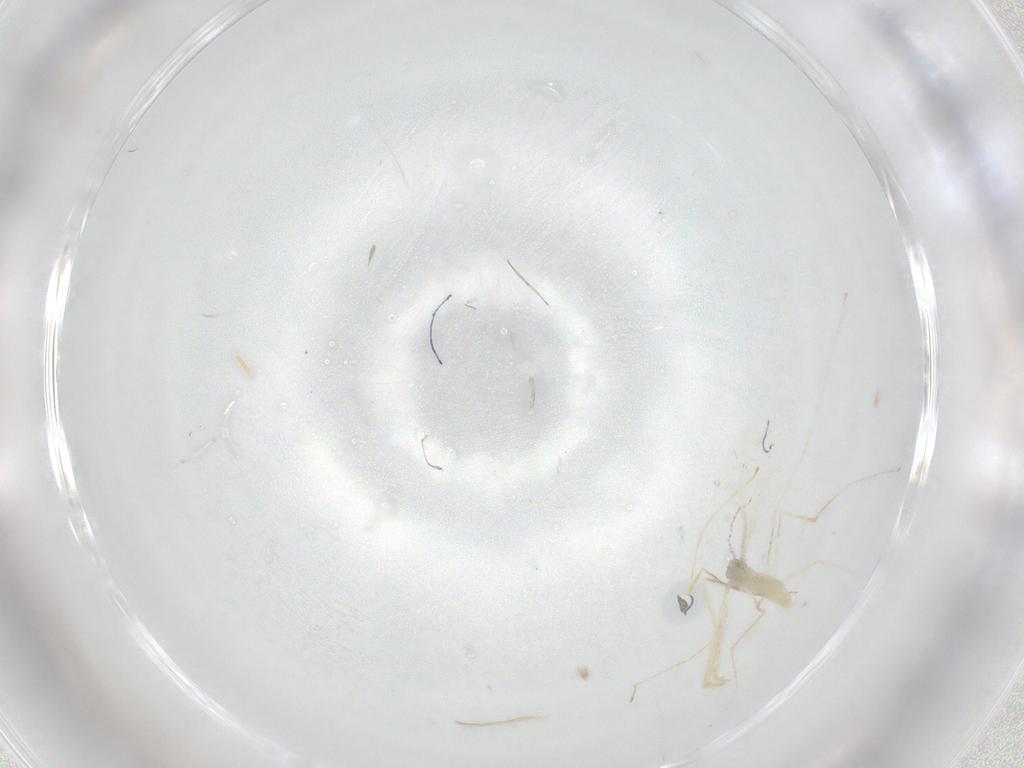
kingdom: Animalia
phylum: Arthropoda
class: Insecta
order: Diptera
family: Cecidomyiidae
